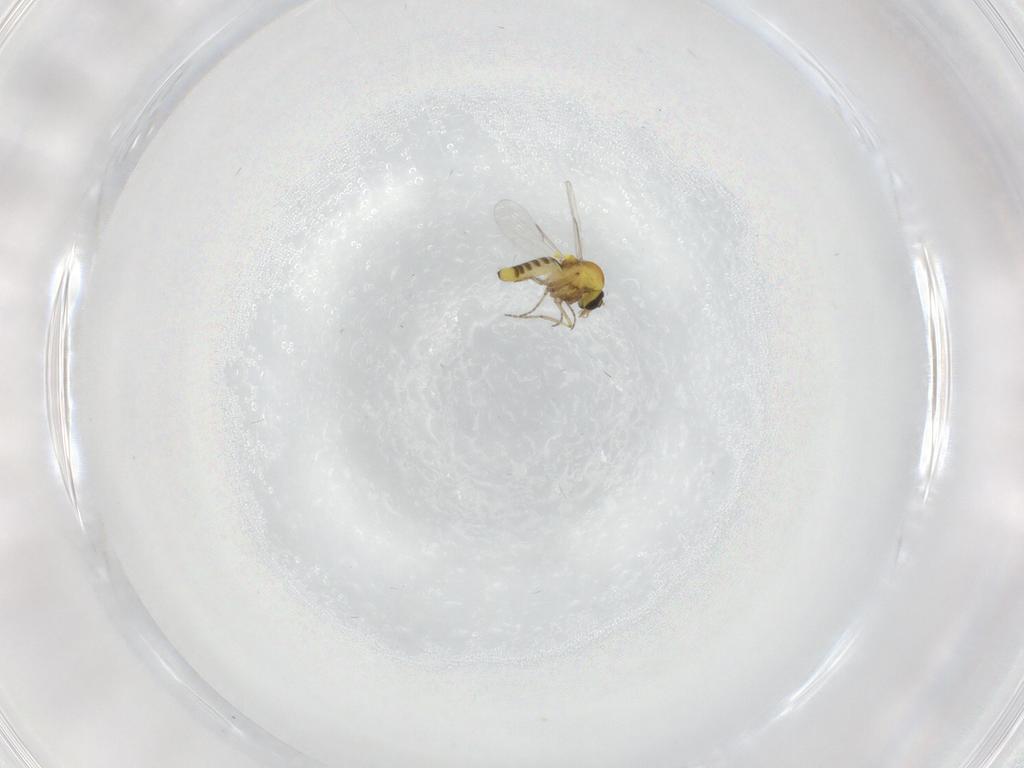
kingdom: Animalia
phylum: Arthropoda
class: Insecta
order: Diptera
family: Ceratopogonidae
